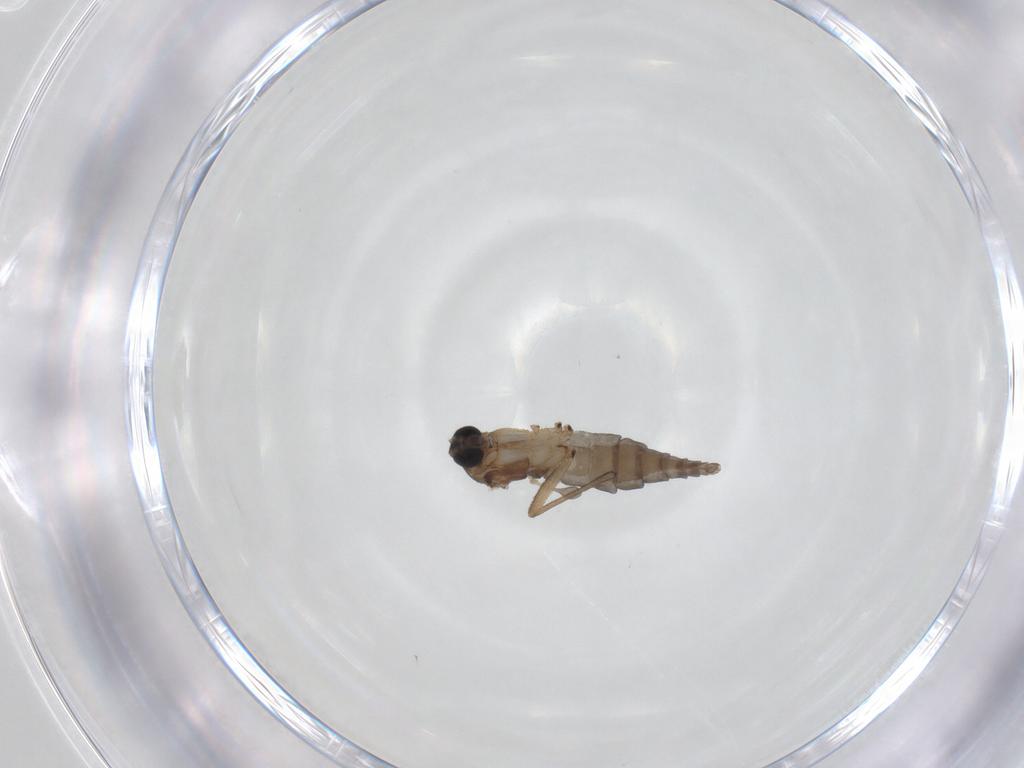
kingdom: Animalia
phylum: Arthropoda
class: Insecta
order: Diptera
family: Sciaridae
